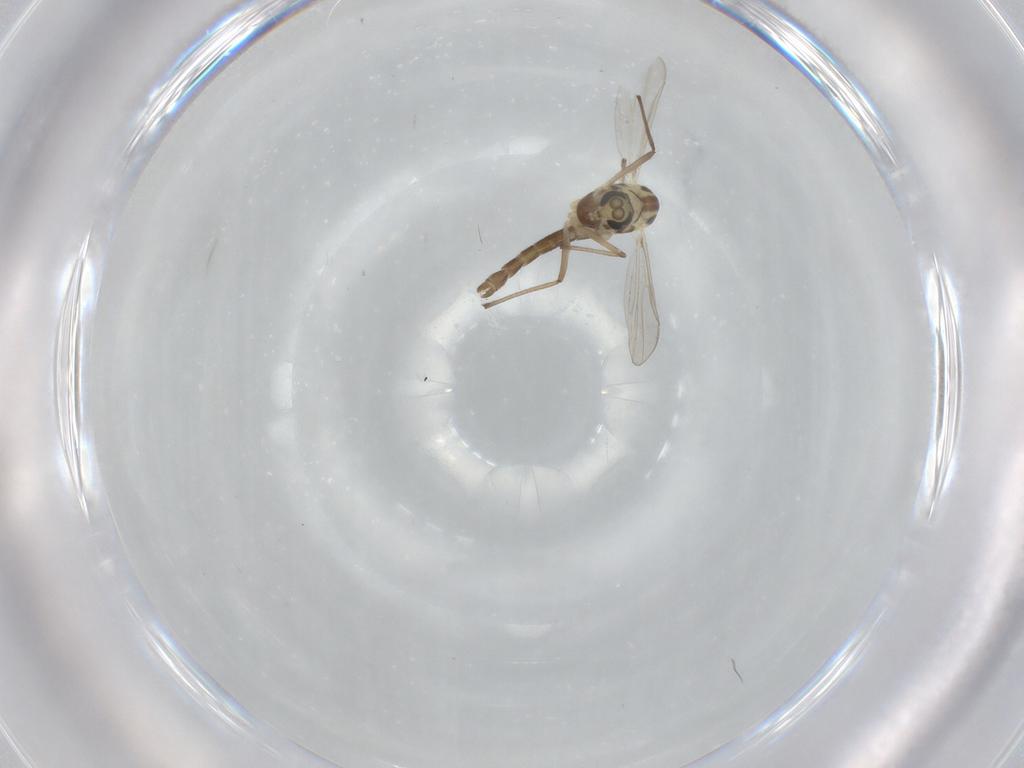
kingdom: Animalia
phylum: Arthropoda
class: Insecta
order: Diptera
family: Chironomidae
